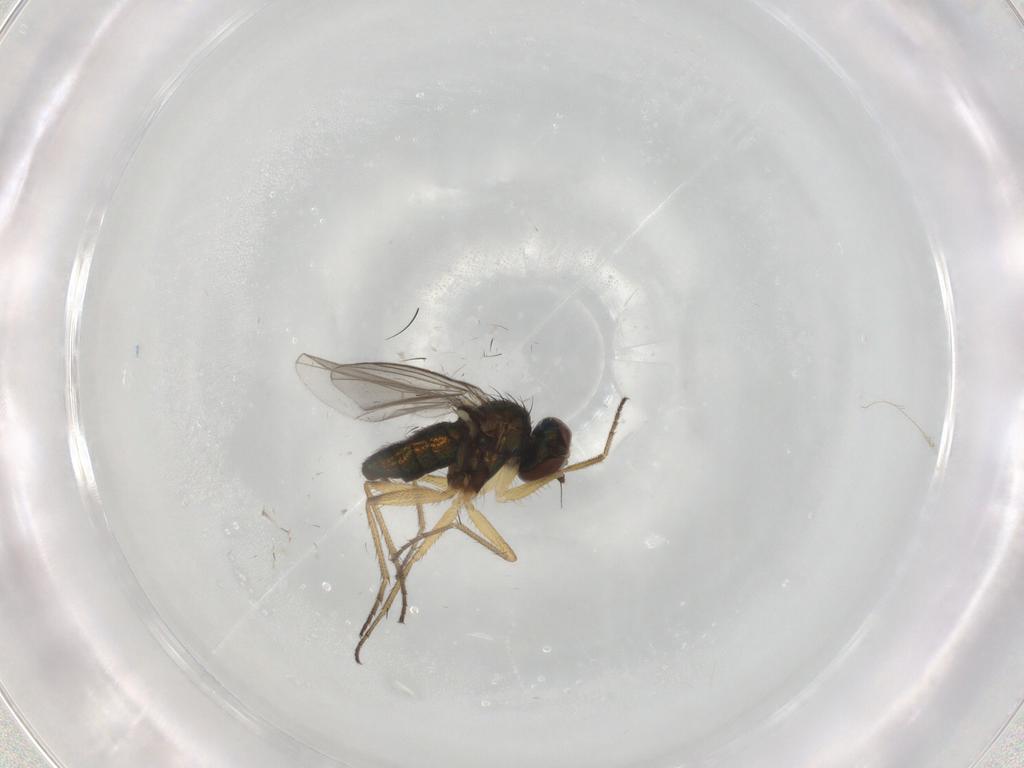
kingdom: Animalia
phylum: Arthropoda
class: Insecta
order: Diptera
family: Dolichopodidae
